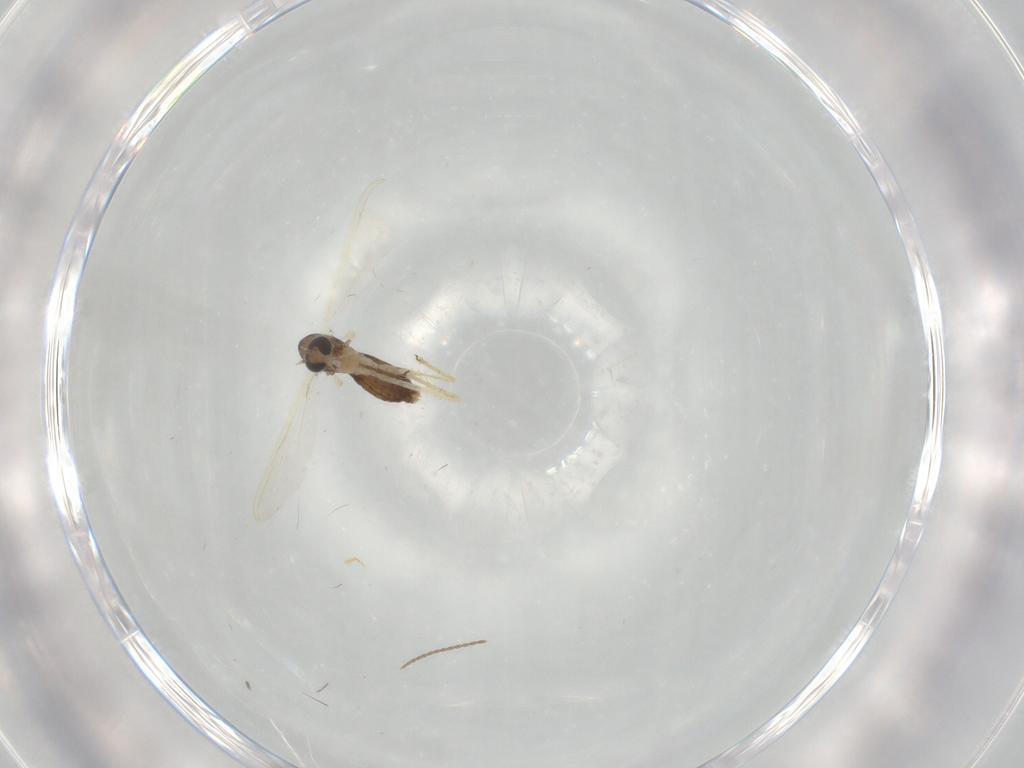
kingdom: Animalia
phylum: Arthropoda
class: Insecta
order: Diptera
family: Chironomidae
